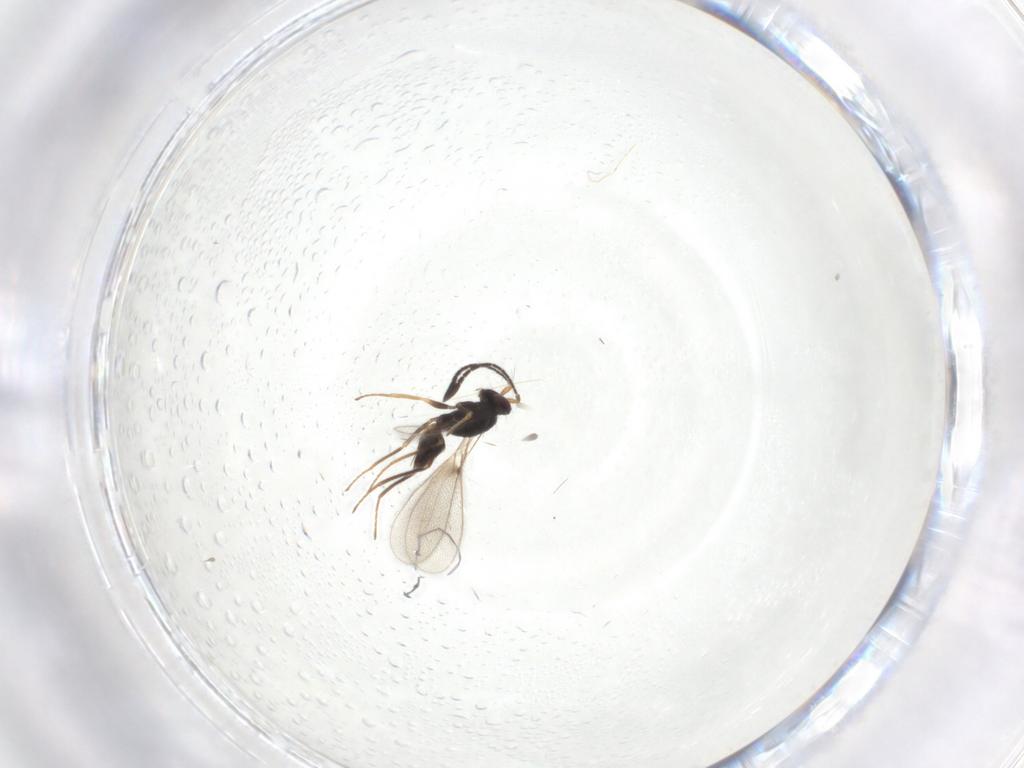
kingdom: Animalia
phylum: Arthropoda
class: Insecta
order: Hymenoptera
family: Mymaridae
